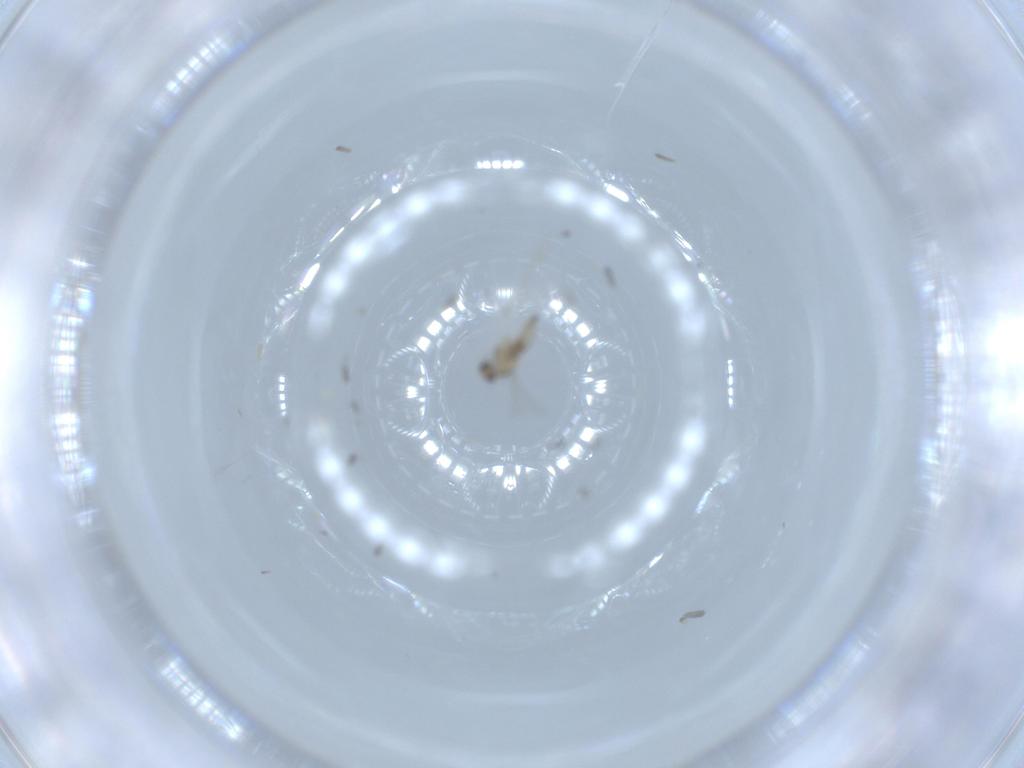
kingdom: Animalia
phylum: Arthropoda
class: Insecta
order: Diptera
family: Cecidomyiidae
